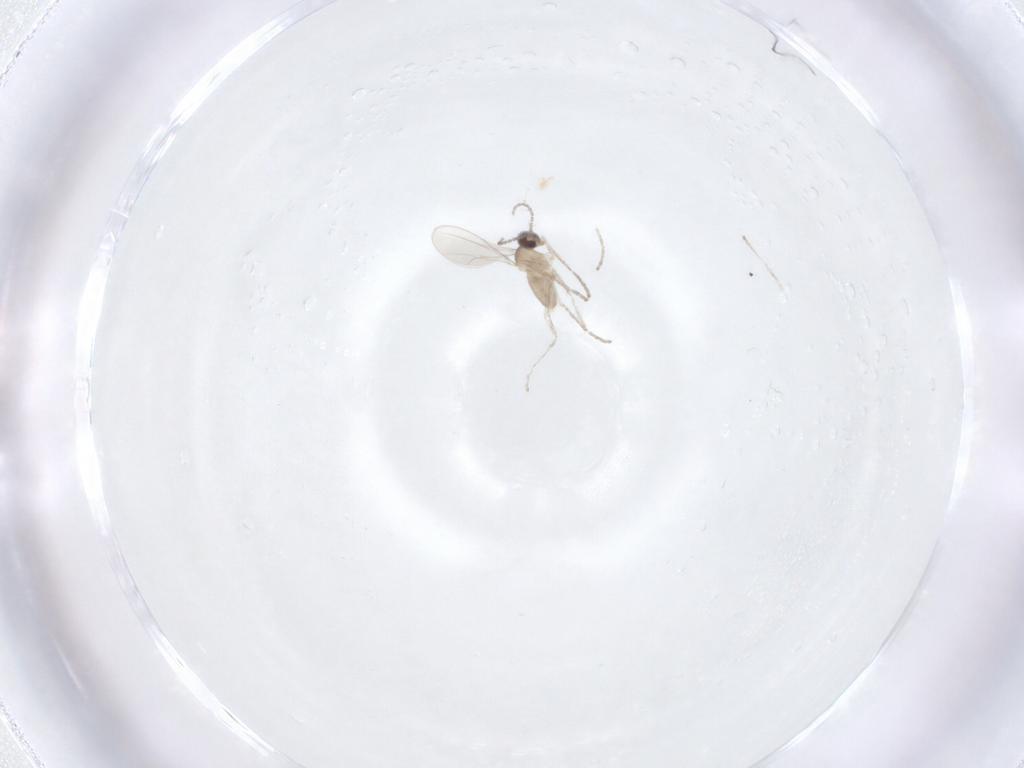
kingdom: Animalia
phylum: Arthropoda
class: Insecta
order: Diptera
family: Cecidomyiidae
